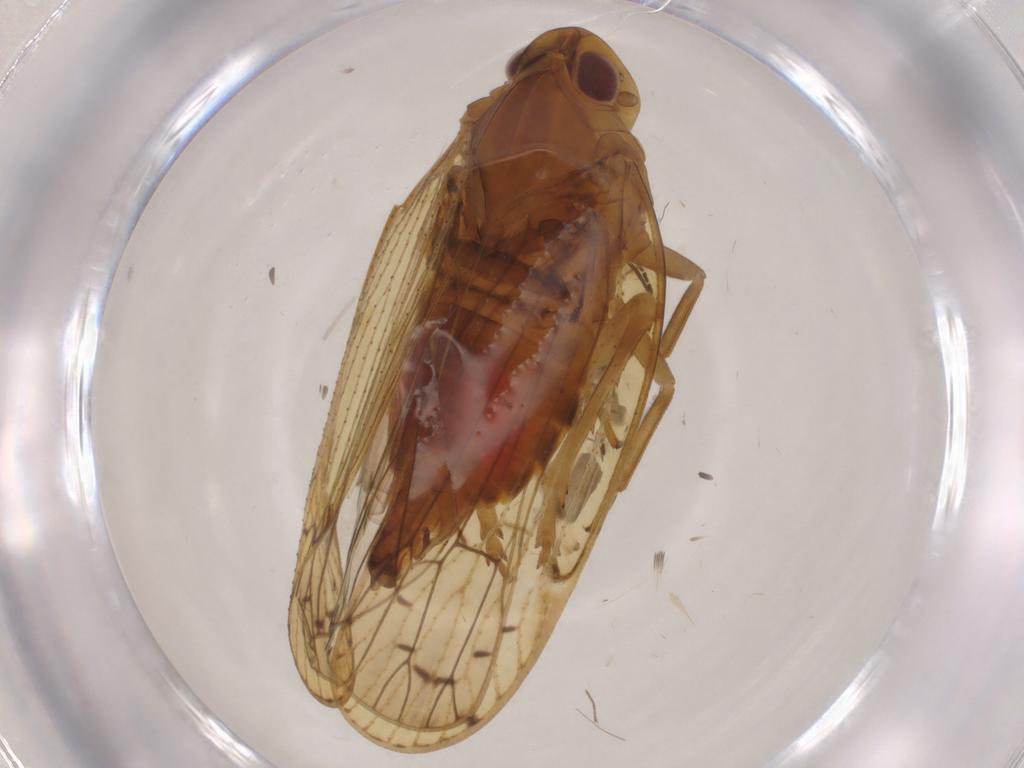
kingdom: Animalia
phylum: Arthropoda
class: Insecta
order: Hemiptera
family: Cicadellidae
